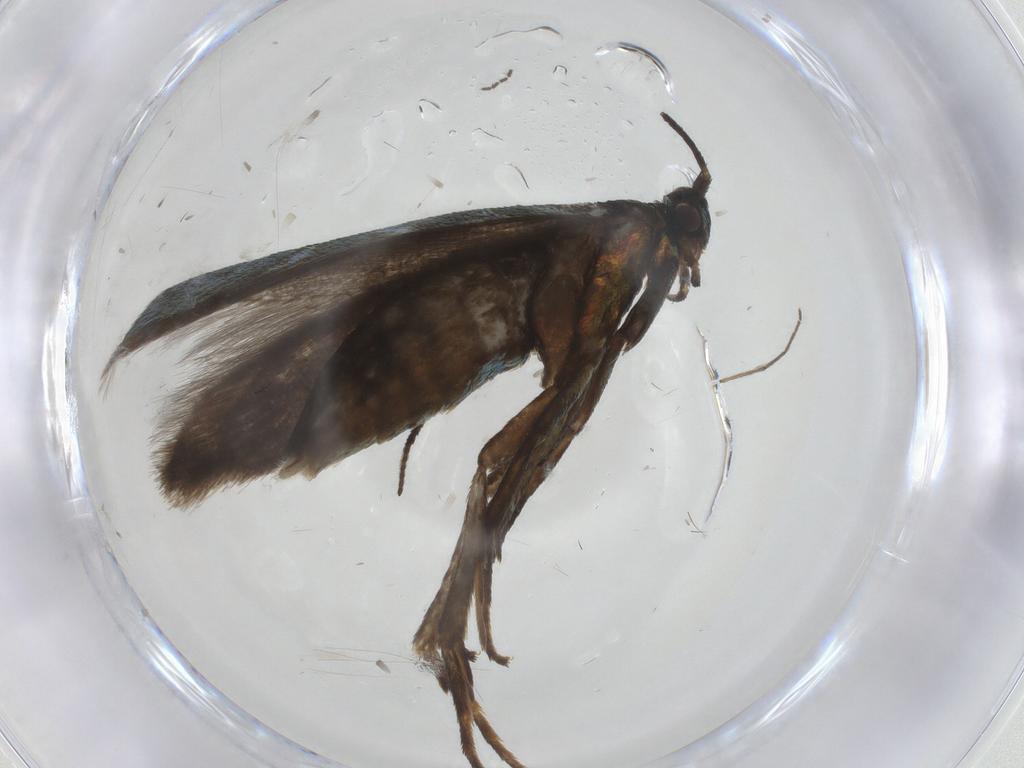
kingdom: Animalia
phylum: Arthropoda
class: Insecta
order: Lepidoptera
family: Argyresthiidae
